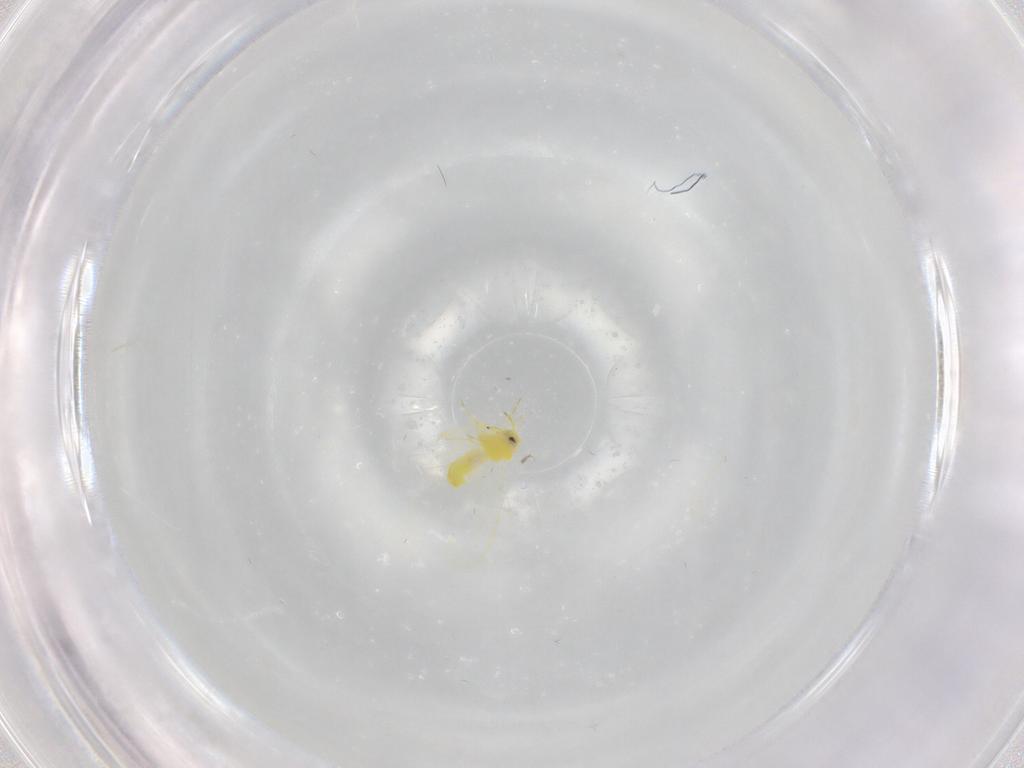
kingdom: Animalia
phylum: Arthropoda
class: Insecta
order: Hemiptera
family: Aleyrodidae
